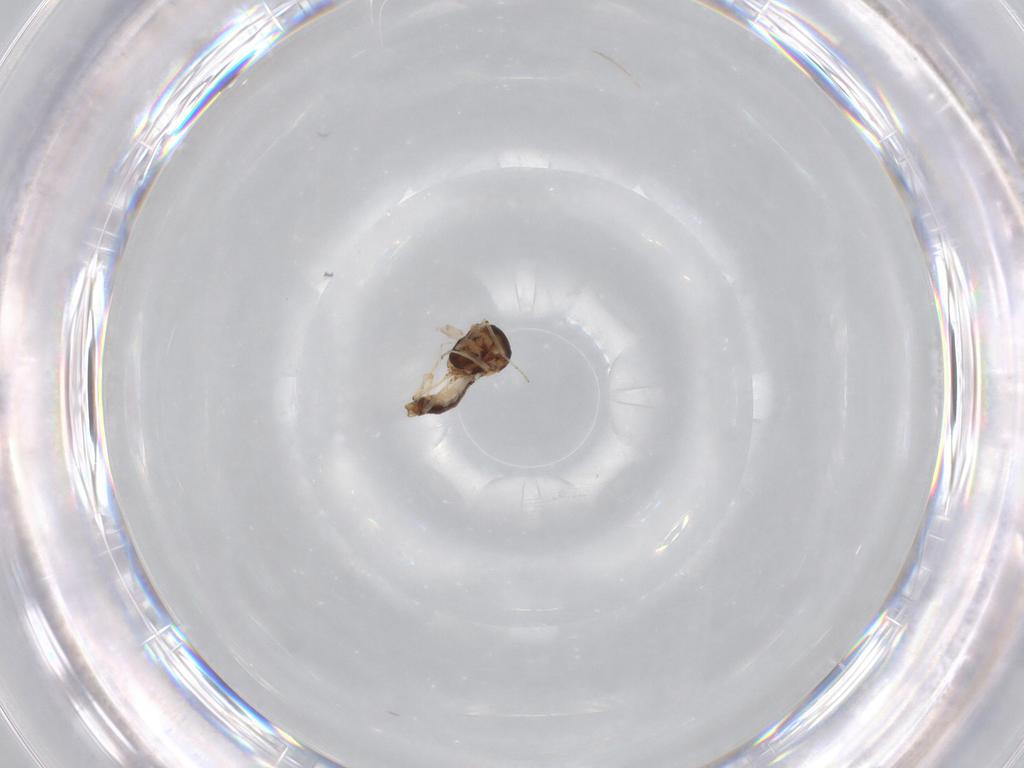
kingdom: Animalia
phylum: Arthropoda
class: Insecta
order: Diptera
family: Ceratopogonidae
